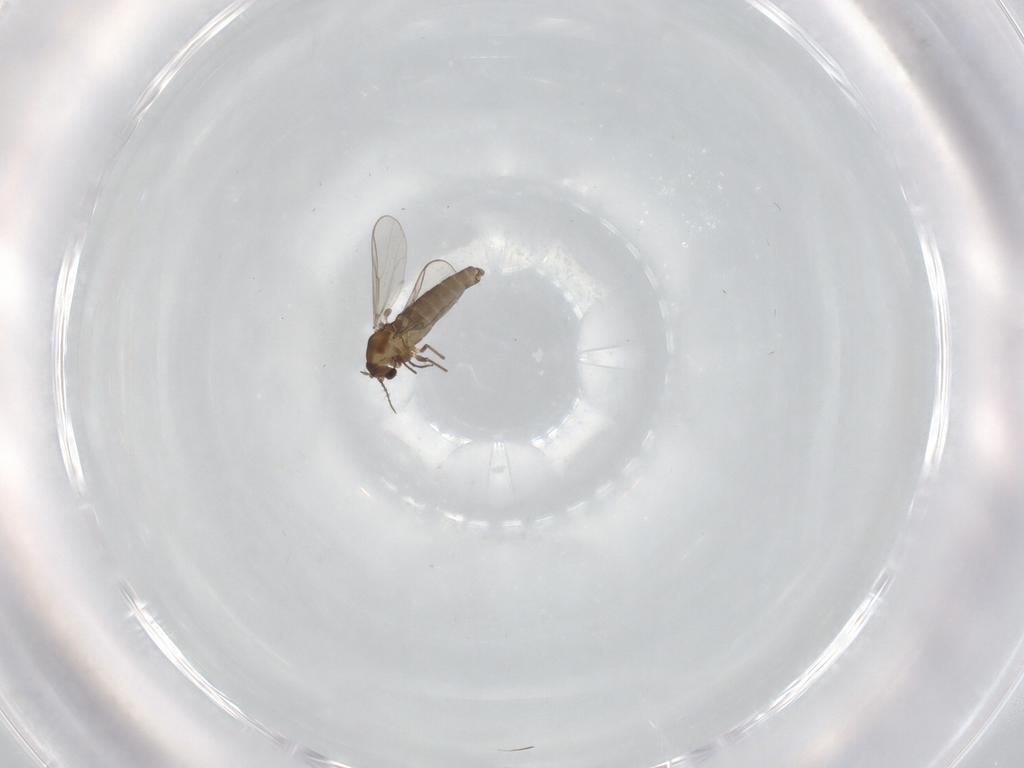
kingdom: Animalia
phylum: Arthropoda
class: Insecta
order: Diptera
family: Chironomidae
